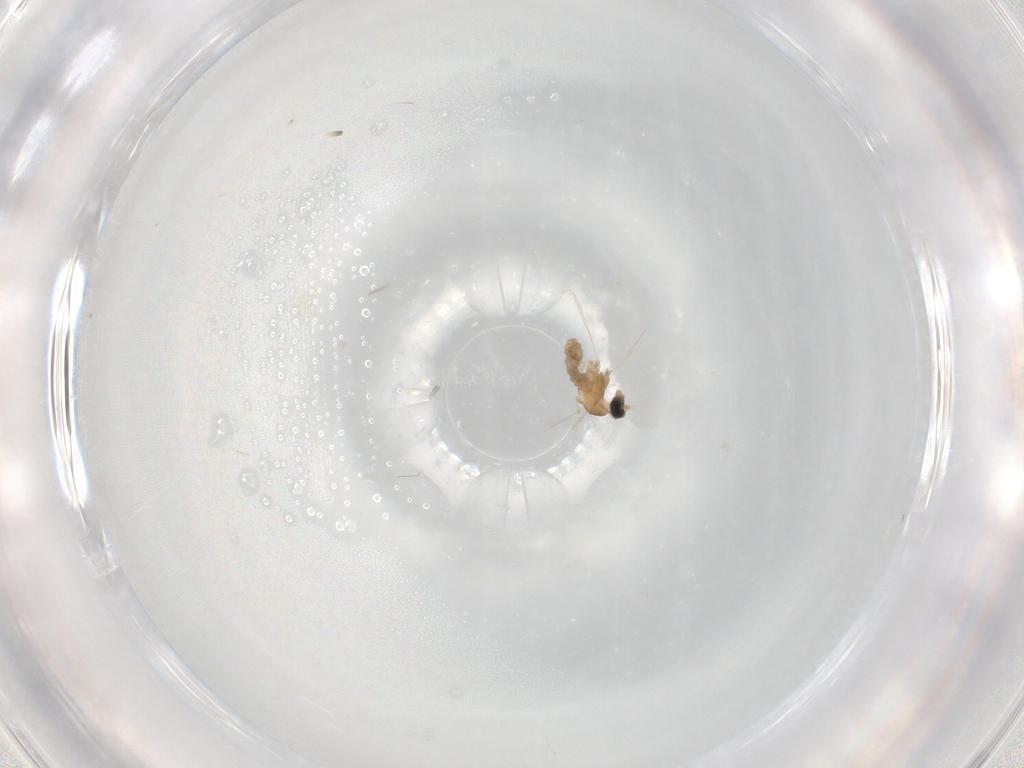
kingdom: Animalia
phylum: Arthropoda
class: Insecta
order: Diptera
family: Cecidomyiidae
